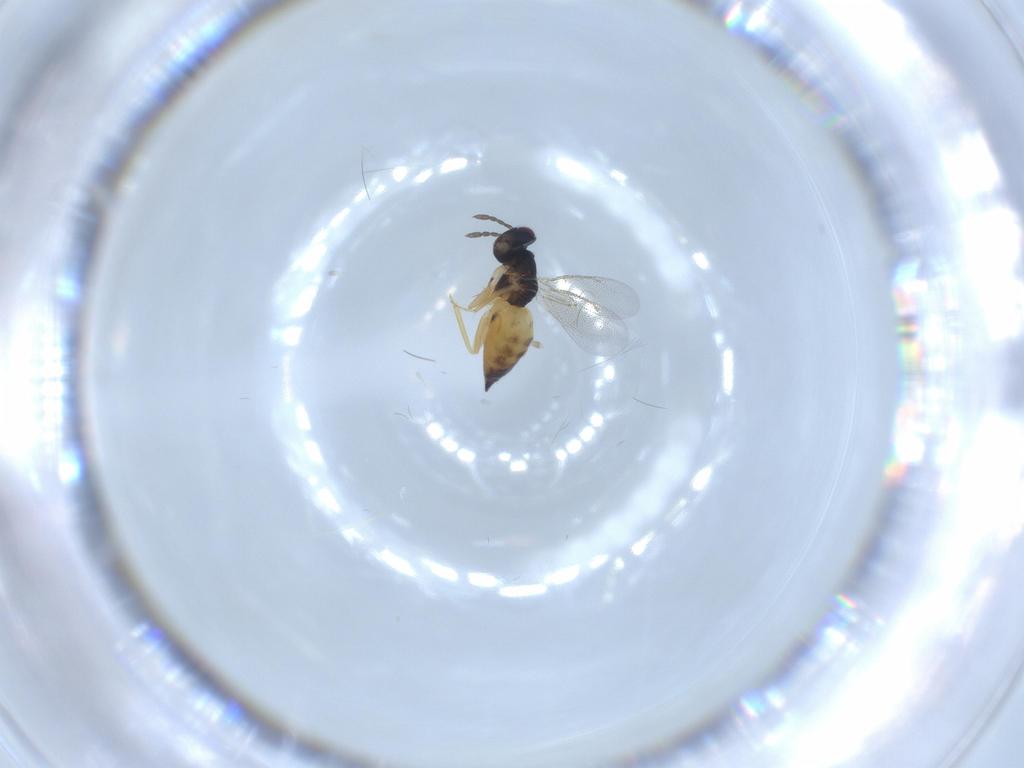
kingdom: Animalia
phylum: Arthropoda
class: Insecta
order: Hymenoptera
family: Eulophidae
